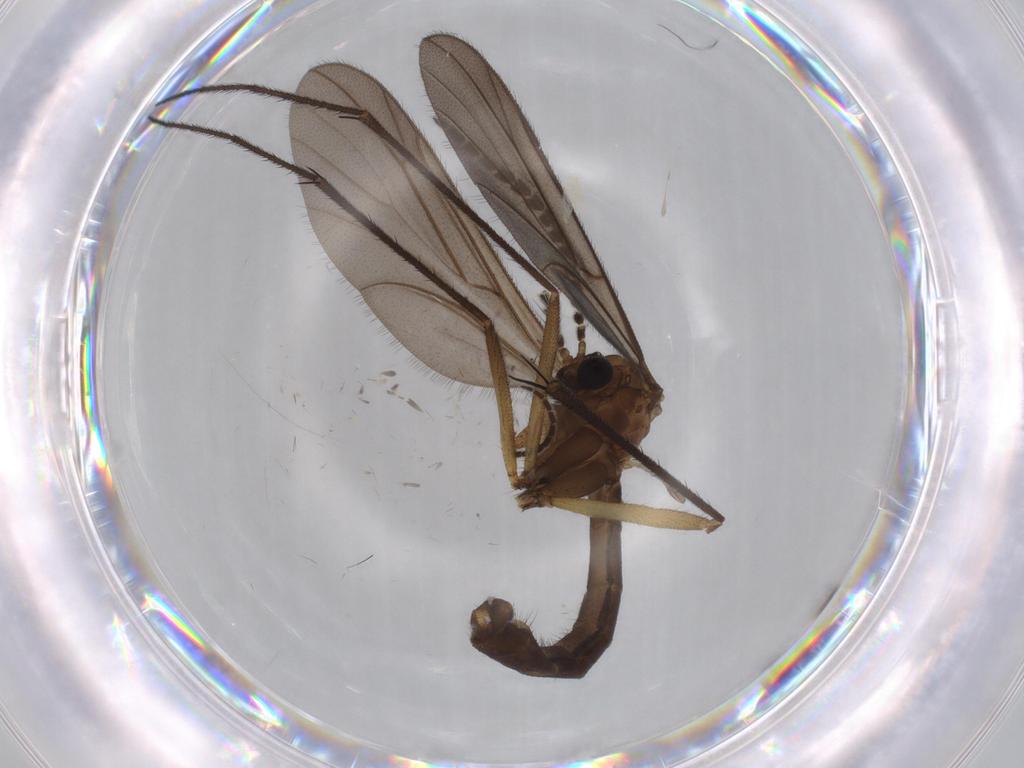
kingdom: Animalia
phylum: Arthropoda
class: Insecta
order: Diptera
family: Sciaridae
